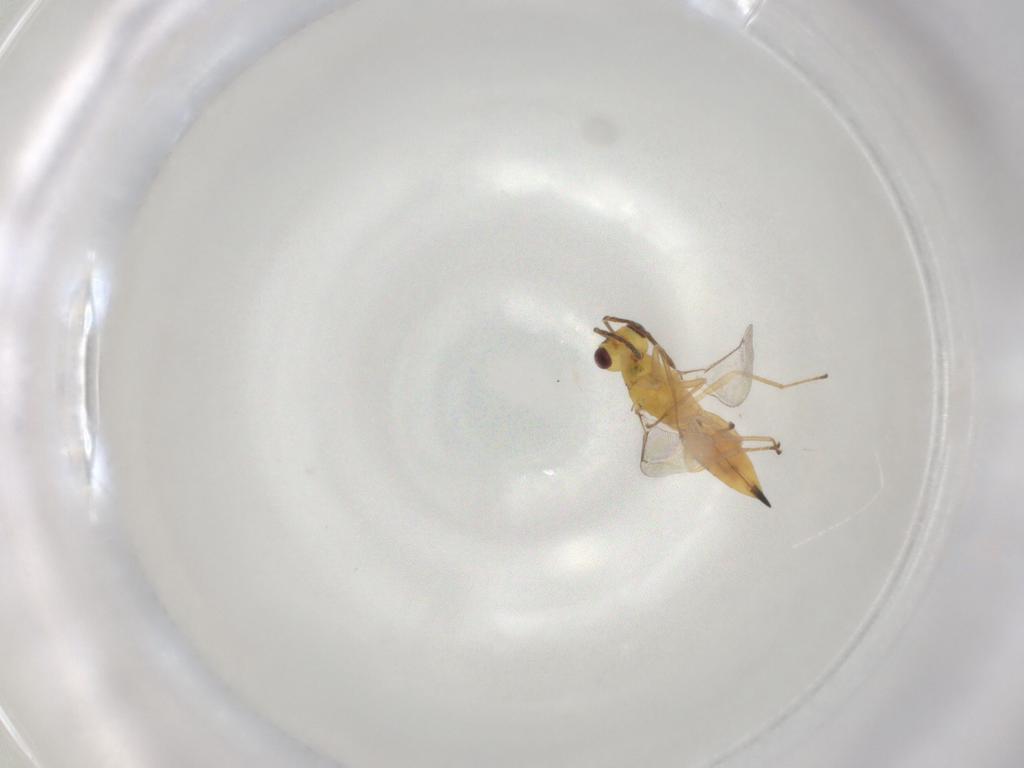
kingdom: Animalia
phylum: Arthropoda
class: Insecta
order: Hymenoptera
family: Eulophidae
